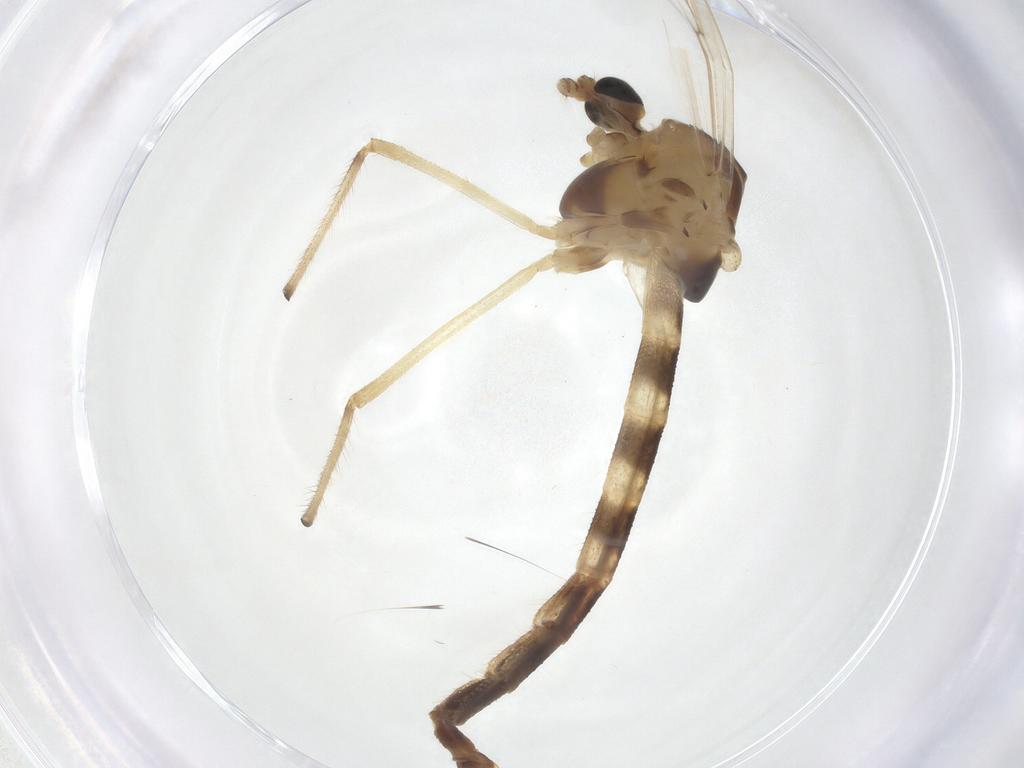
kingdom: Animalia
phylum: Arthropoda
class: Insecta
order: Diptera
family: Chironomidae
